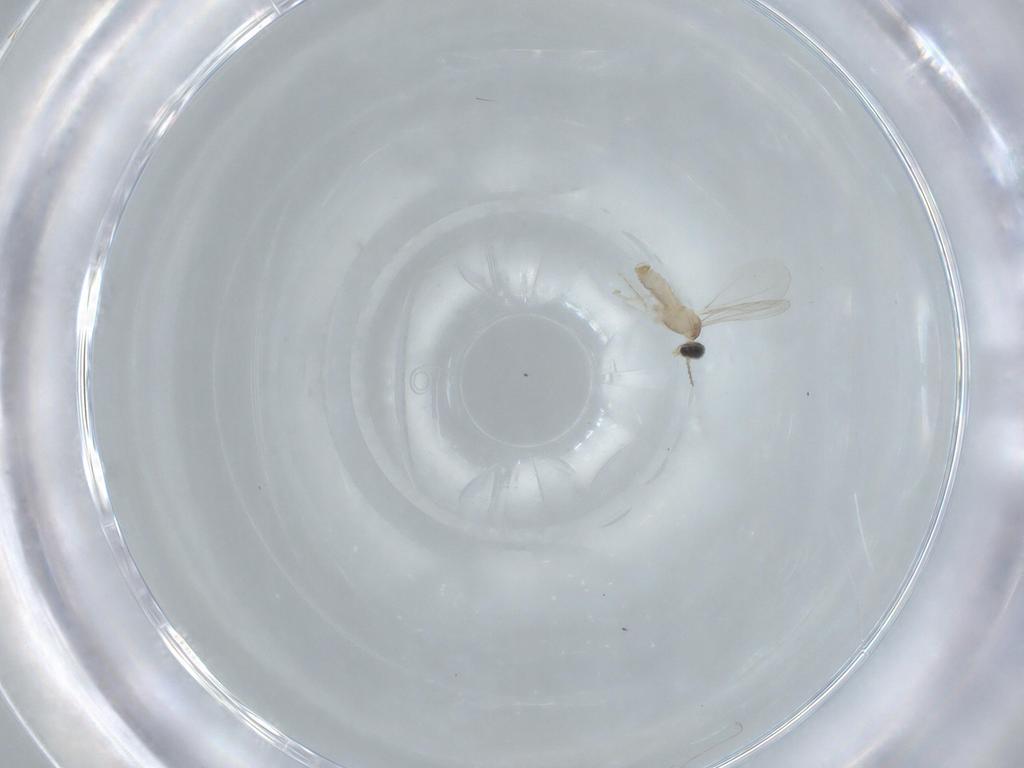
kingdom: Animalia
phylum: Arthropoda
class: Insecta
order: Diptera
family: Cecidomyiidae
